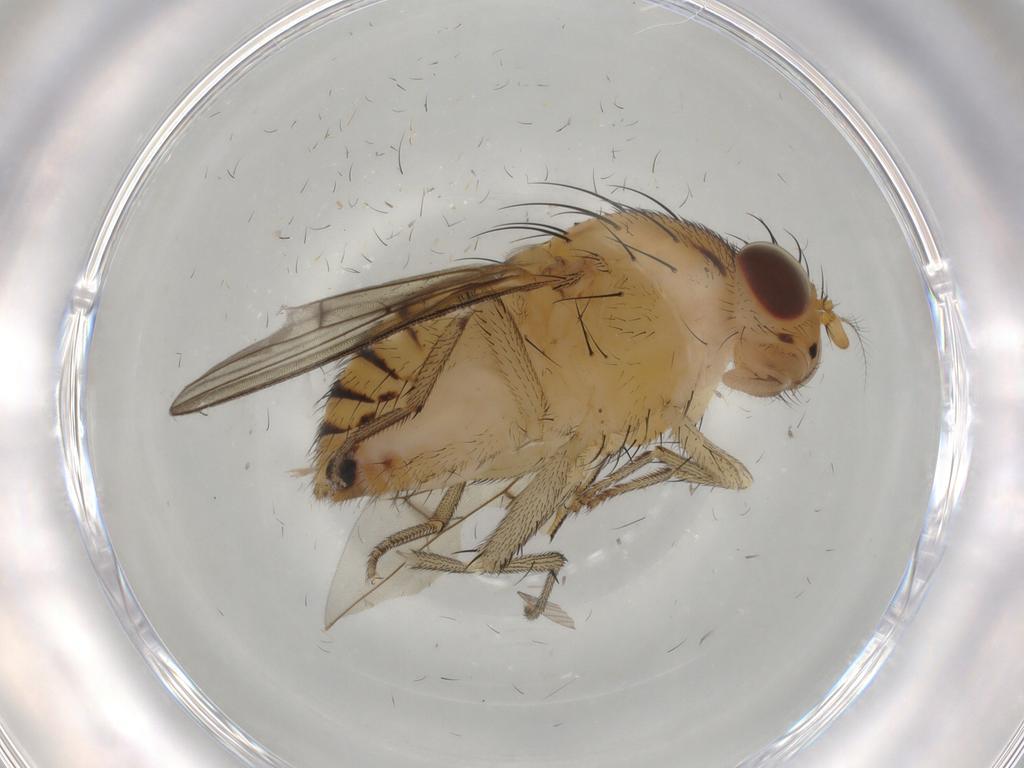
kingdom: Animalia
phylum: Arthropoda
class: Insecta
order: Diptera
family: Lauxaniidae
